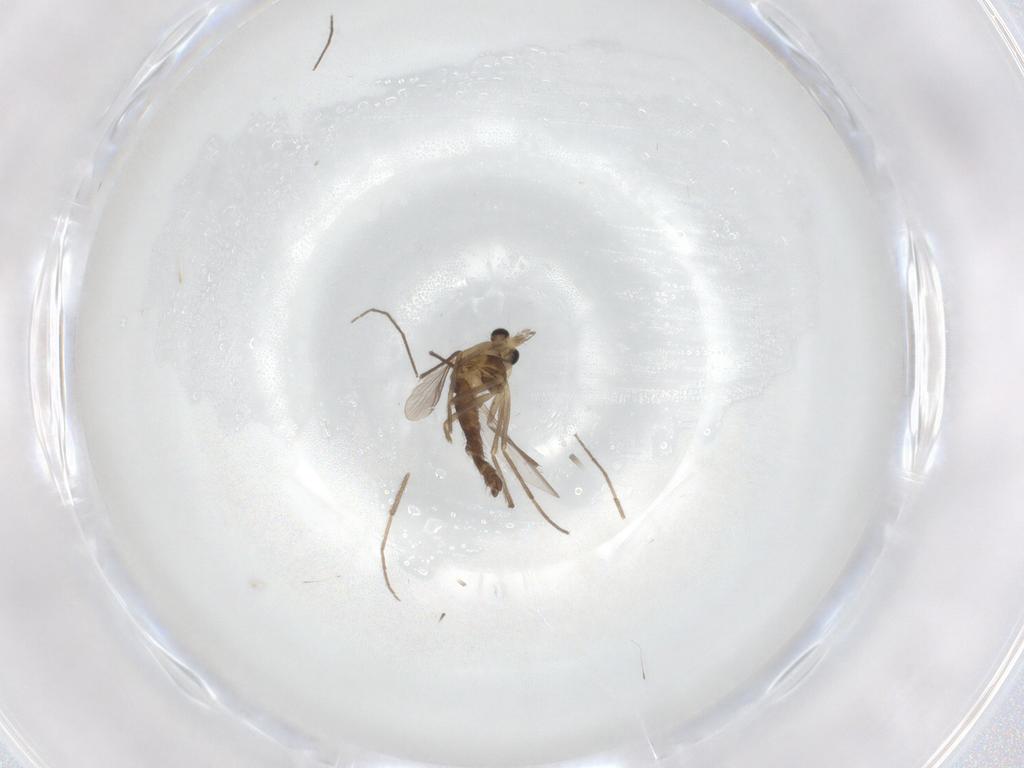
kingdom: Animalia
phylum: Arthropoda
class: Insecta
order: Diptera
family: Chironomidae
